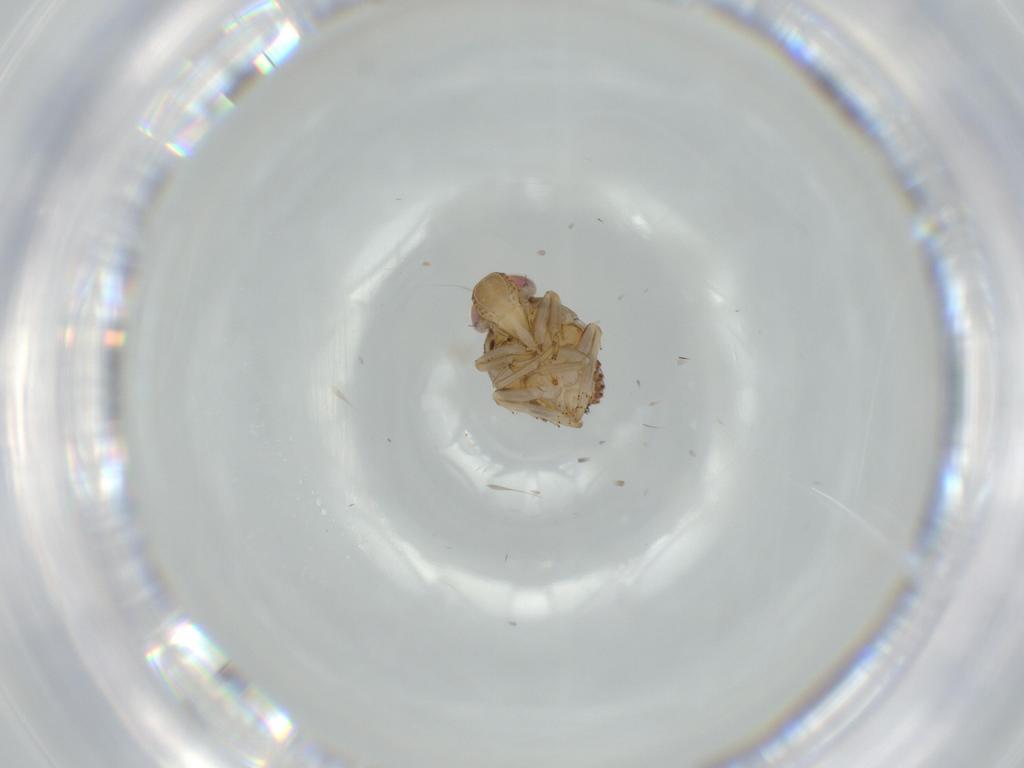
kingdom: Animalia
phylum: Arthropoda
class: Insecta
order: Hemiptera
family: Issidae
